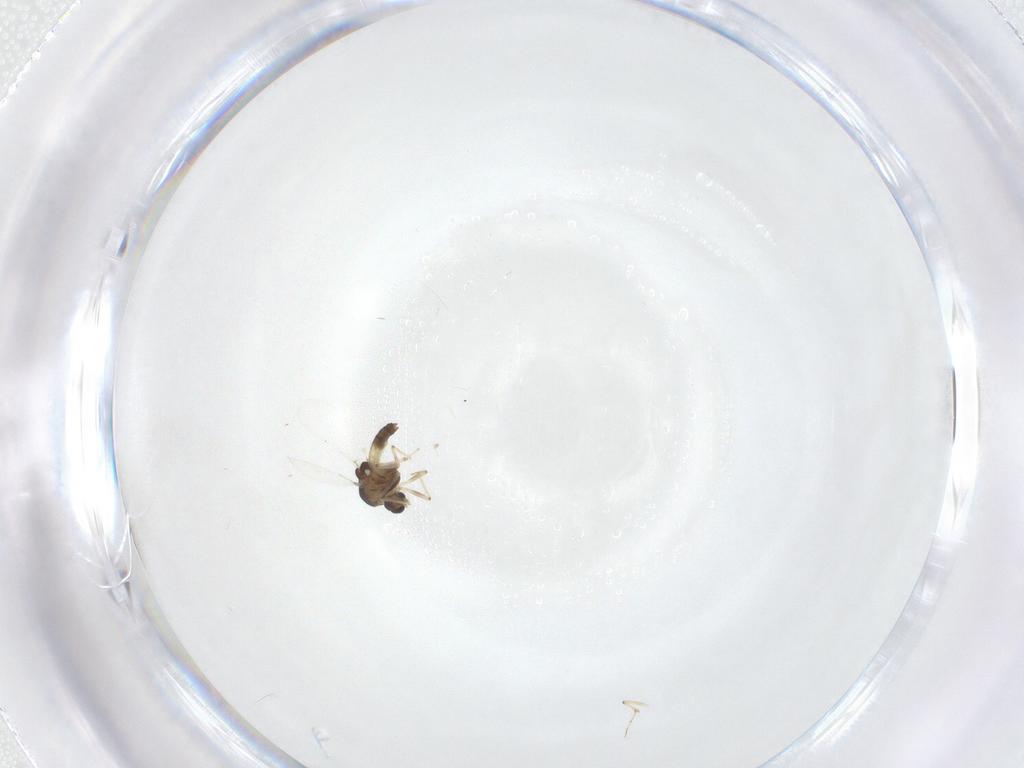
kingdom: Animalia
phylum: Arthropoda
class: Insecta
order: Diptera
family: Chironomidae
